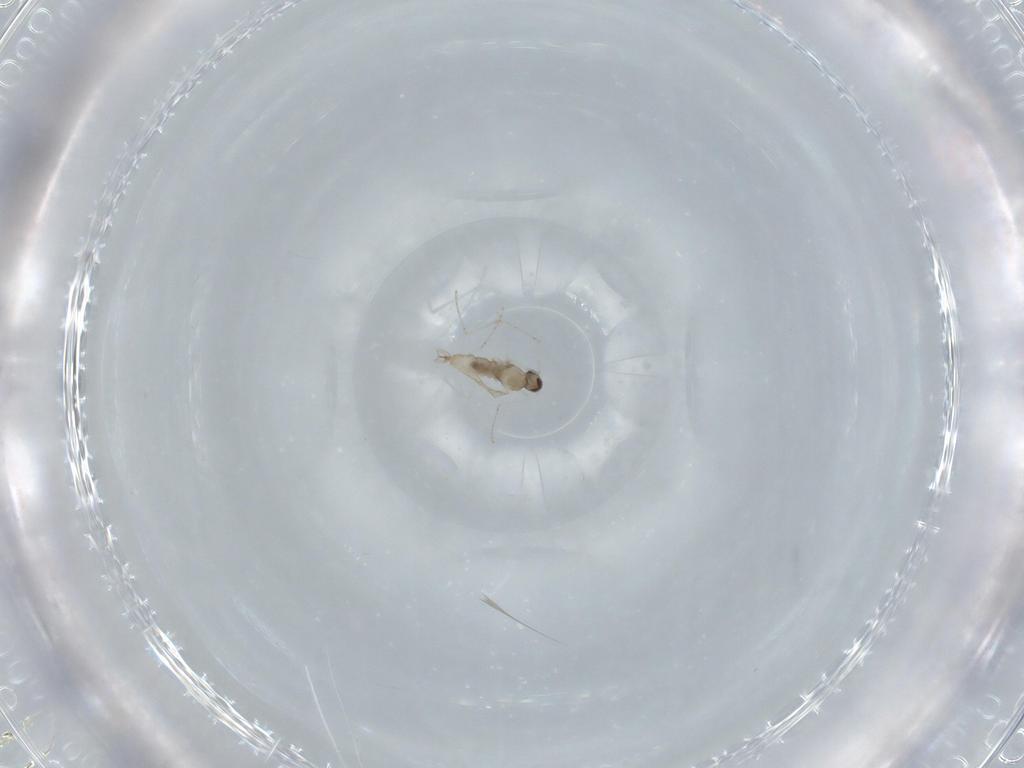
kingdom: Animalia
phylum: Arthropoda
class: Insecta
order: Diptera
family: Cecidomyiidae
